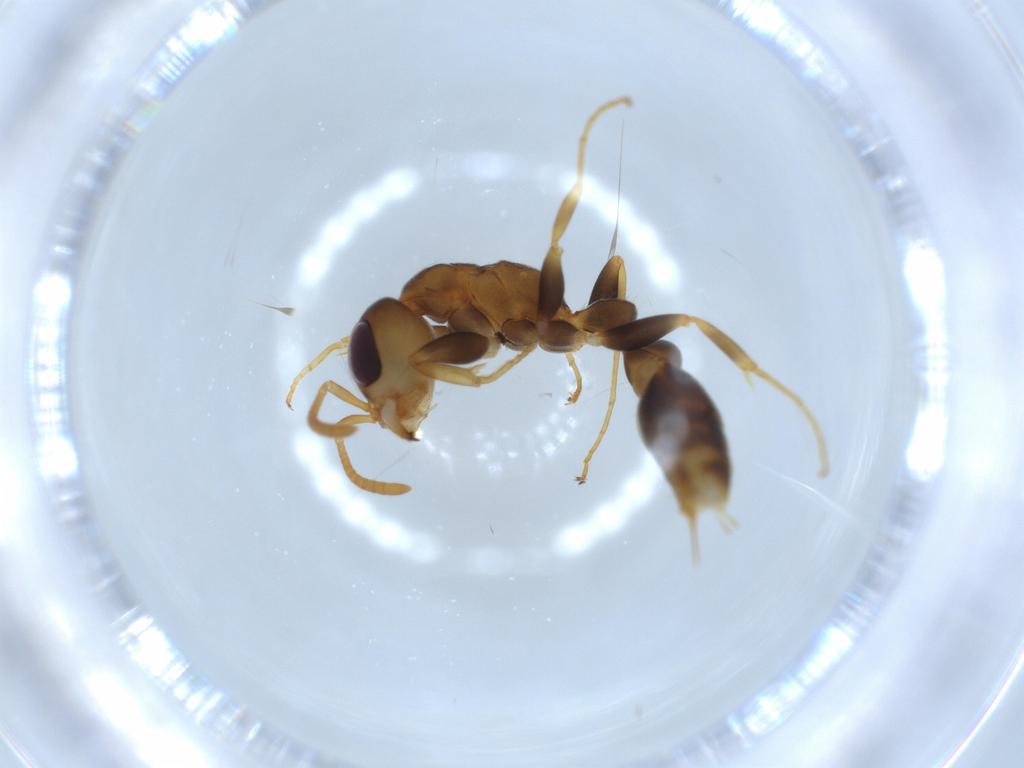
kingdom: Animalia
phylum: Arthropoda
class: Insecta
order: Hymenoptera
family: Formicidae
